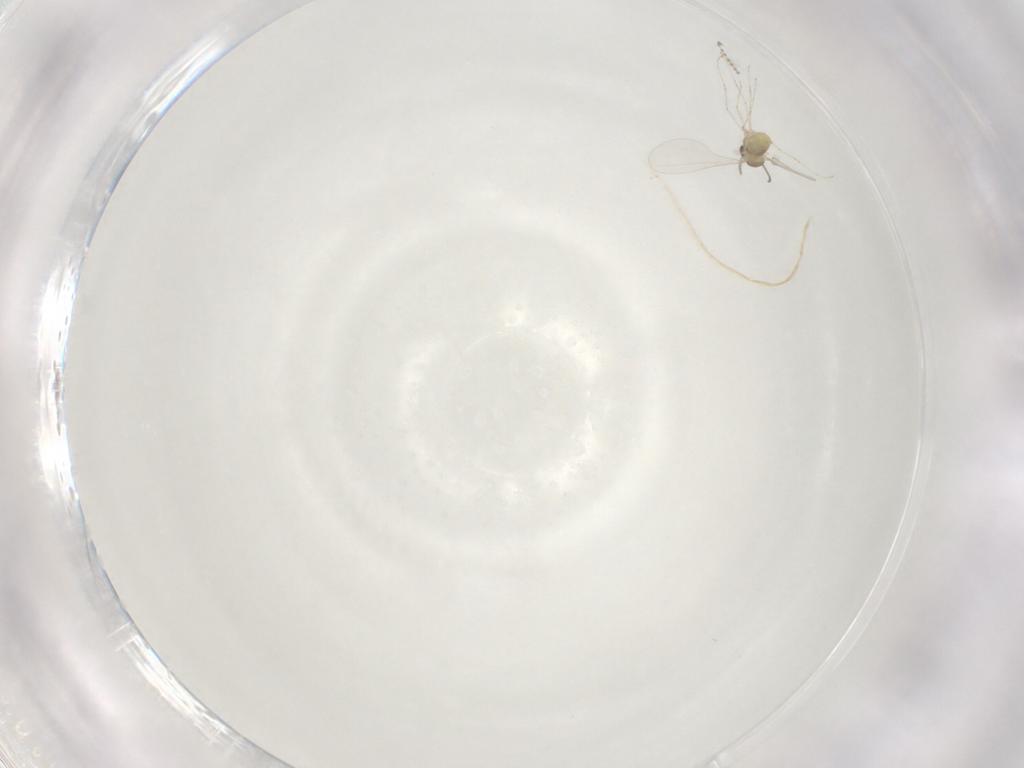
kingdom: Animalia
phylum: Arthropoda
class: Insecta
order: Diptera
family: Cecidomyiidae
